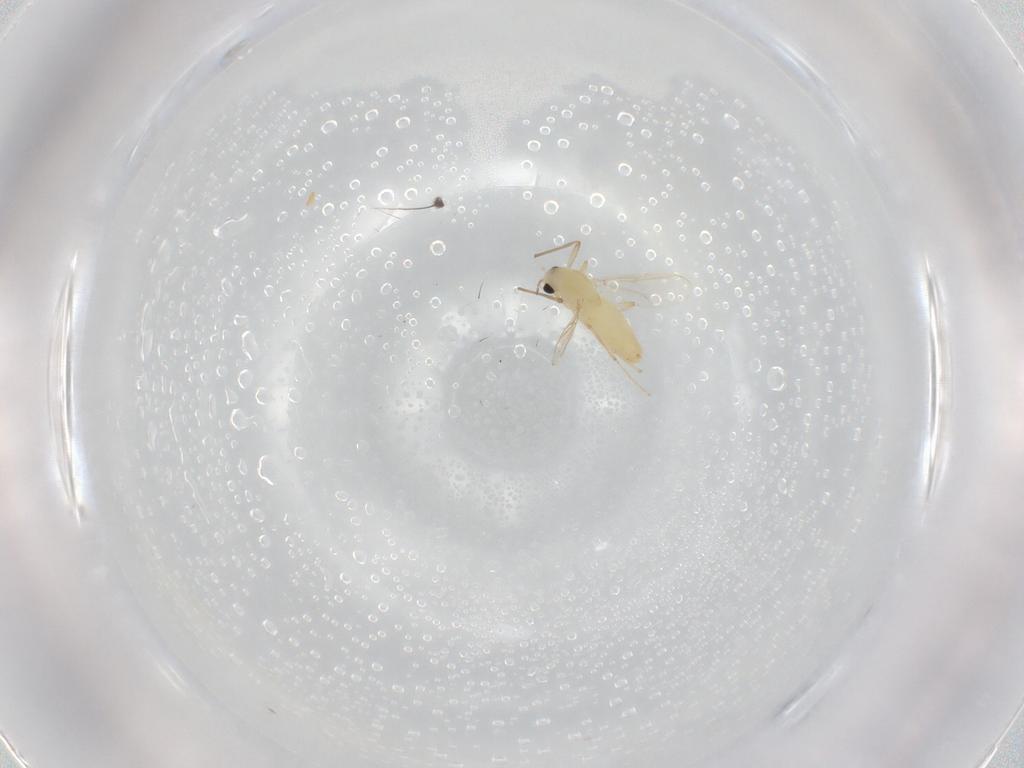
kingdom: Animalia
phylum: Arthropoda
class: Insecta
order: Diptera
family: Chironomidae
